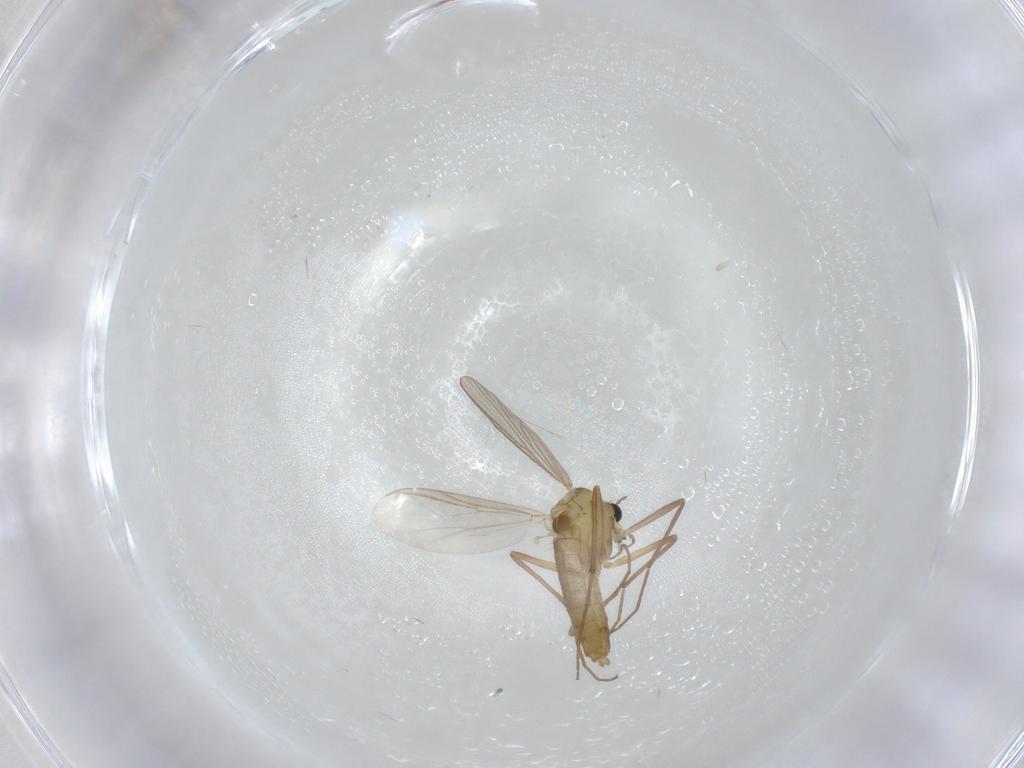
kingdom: Animalia
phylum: Arthropoda
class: Insecta
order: Diptera
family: Chironomidae
